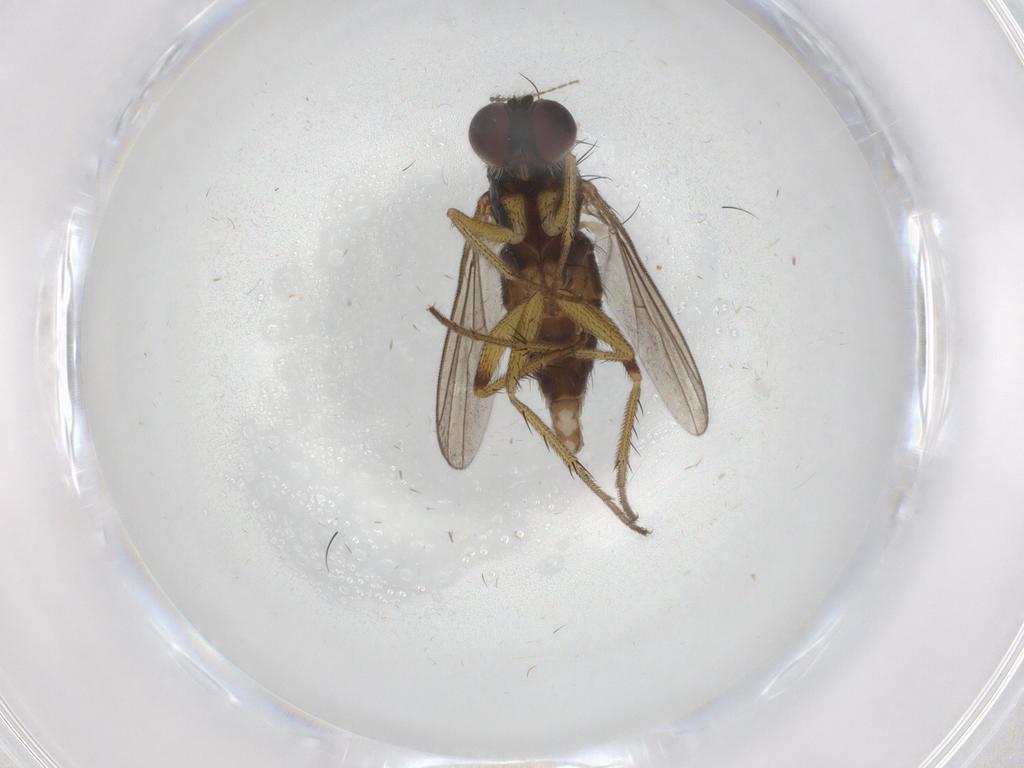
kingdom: Animalia
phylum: Arthropoda
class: Insecta
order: Diptera
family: Dolichopodidae
